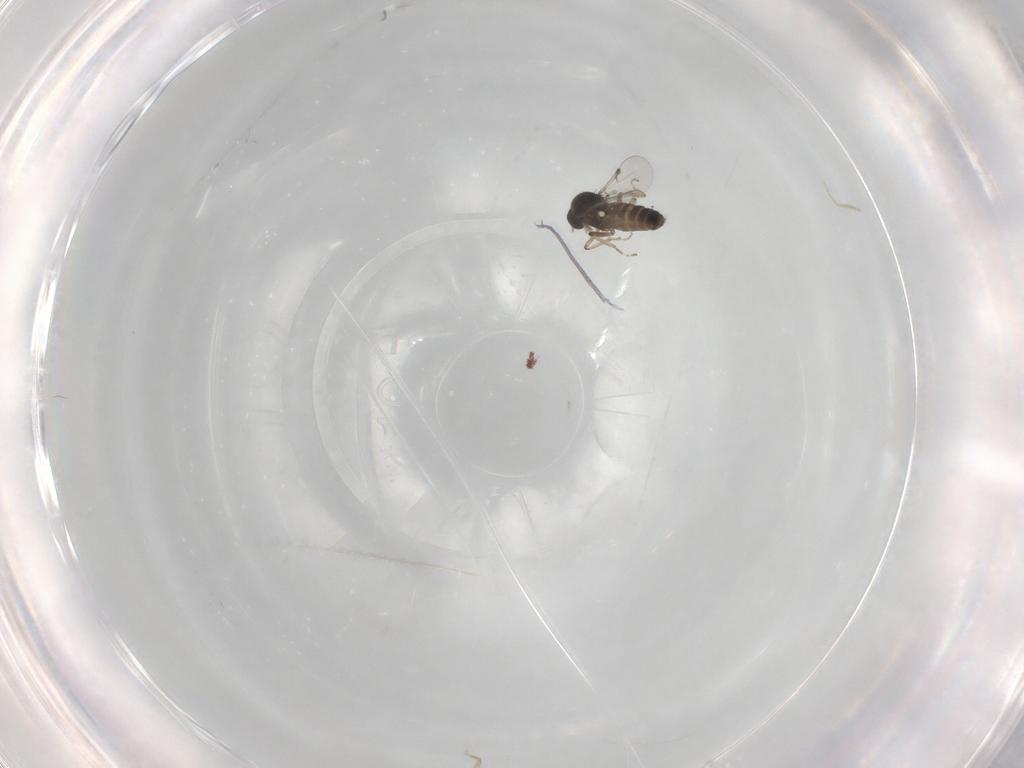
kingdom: Animalia
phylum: Arthropoda
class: Insecta
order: Diptera
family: Ceratopogonidae
